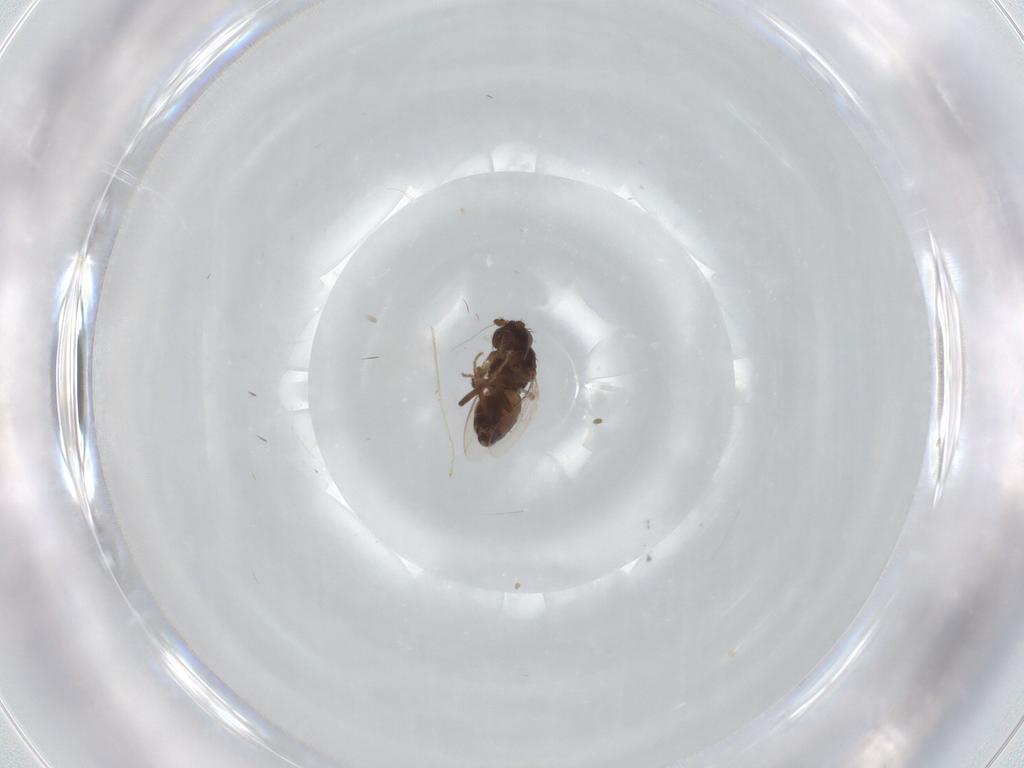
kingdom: Animalia
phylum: Arthropoda
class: Insecta
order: Diptera
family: Sphaeroceridae
